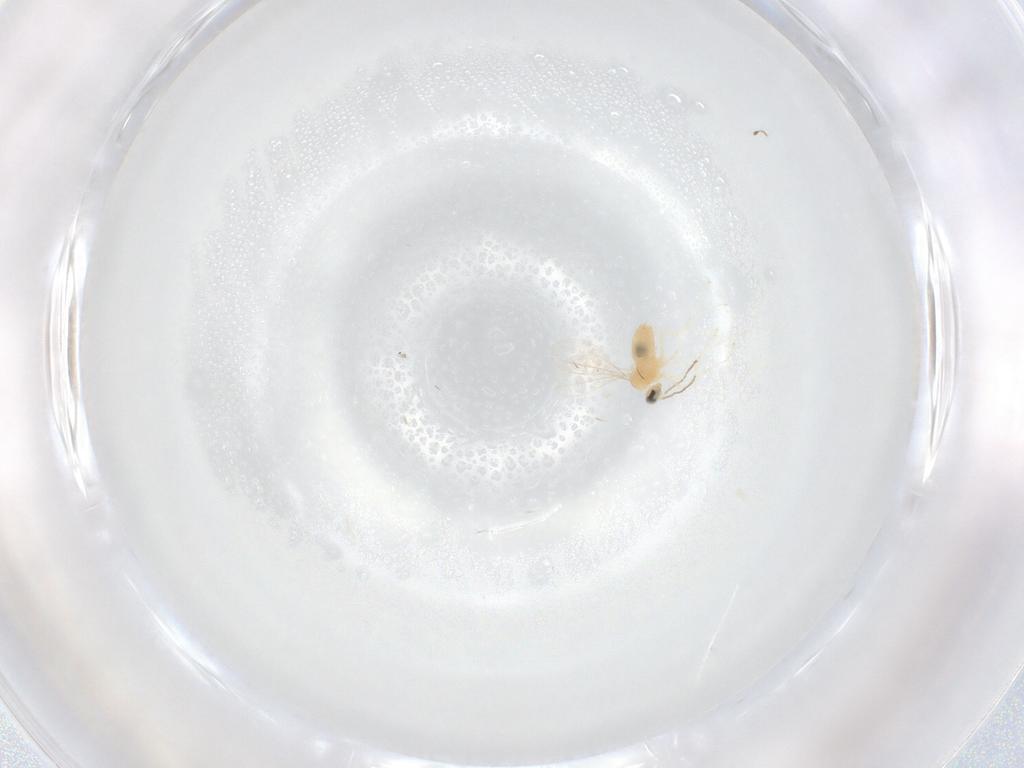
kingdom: Animalia
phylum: Arthropoda
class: Insecta
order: Diptera
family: Cecidomyiidae
